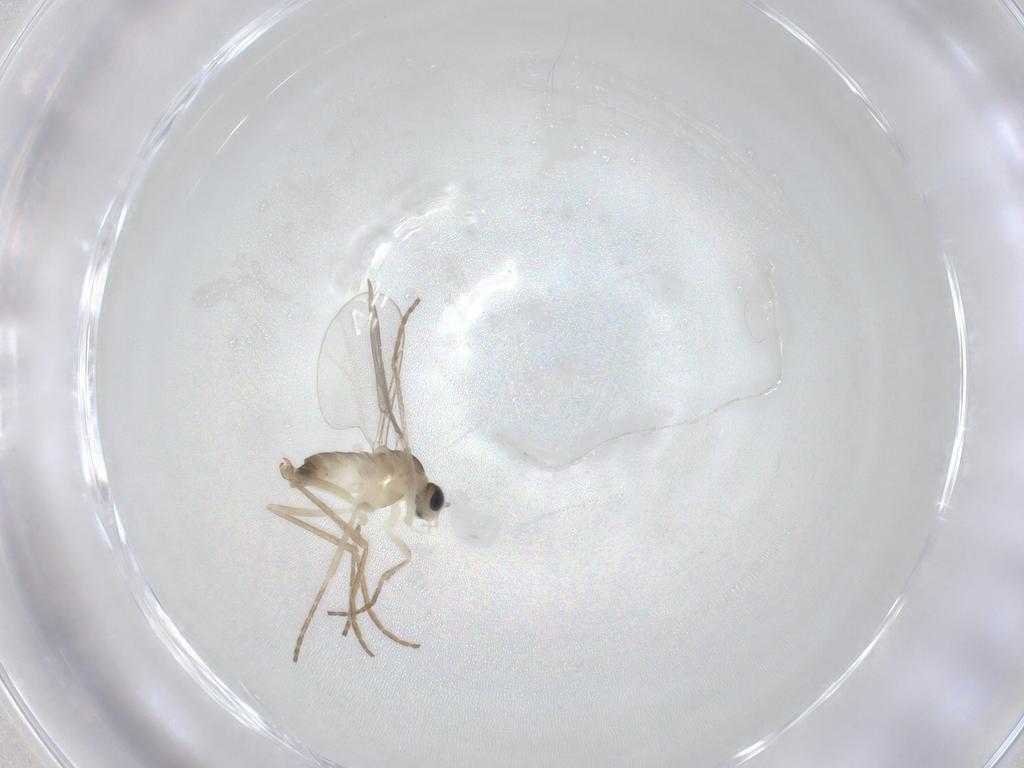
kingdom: Animalia
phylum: Arthropoda
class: Insecta
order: Diptera
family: Cecidomyiidae
